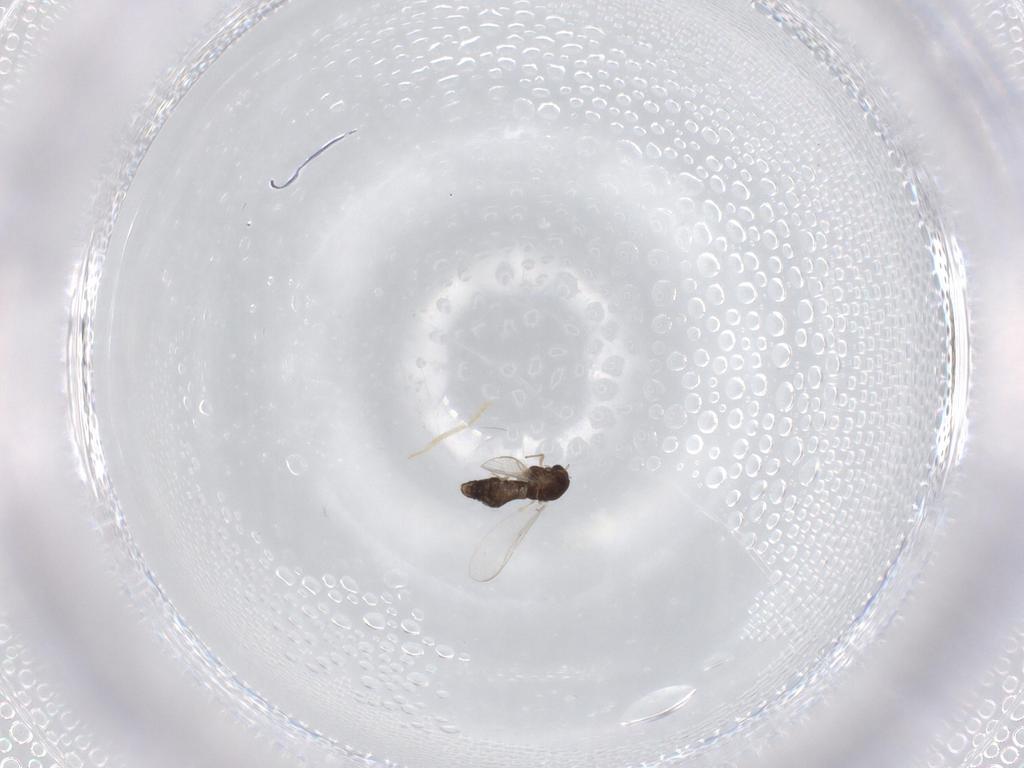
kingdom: Animalia
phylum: Arthropoda
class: Insecta
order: Diptera
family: Chironomidae
